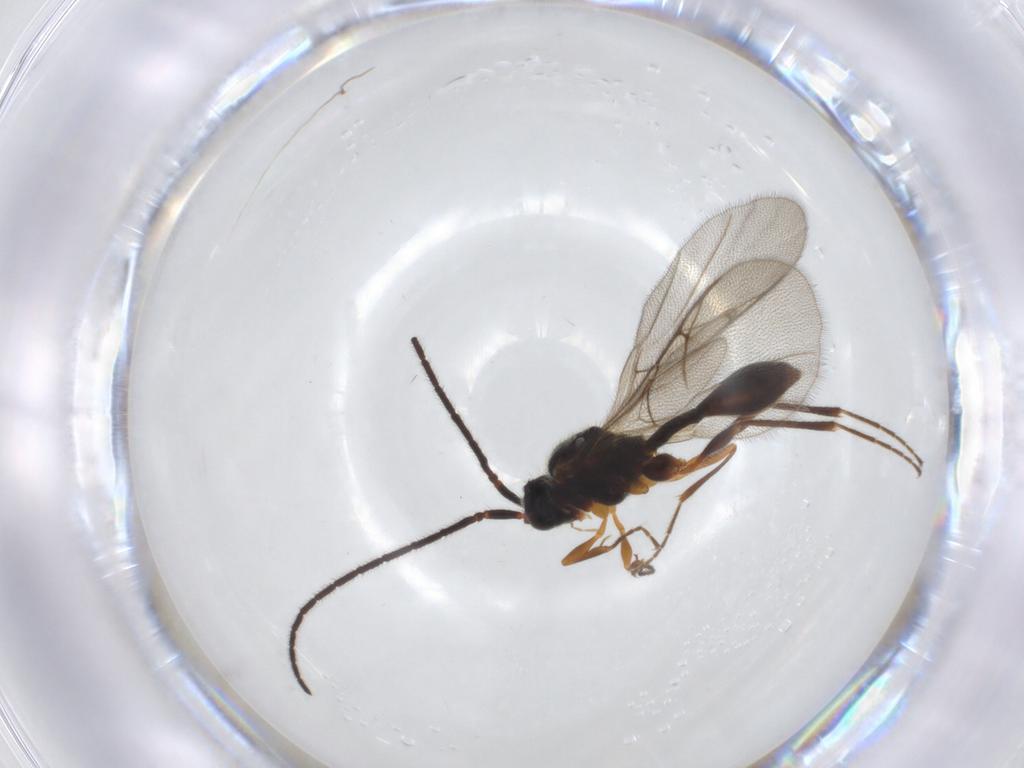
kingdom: Animalia
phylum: Arthropoda
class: Insecta
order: Hymenoptera
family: Diapriidae
